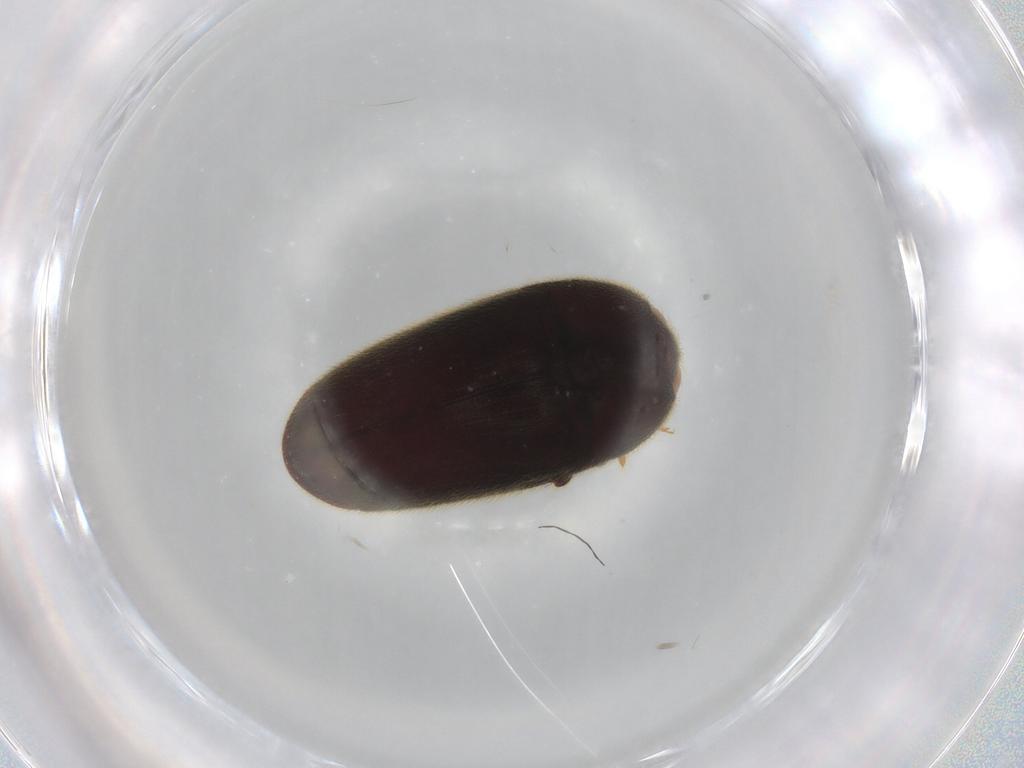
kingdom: Animalia
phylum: Arthropoda
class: Insecta
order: Coleoptera
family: Throscidae
